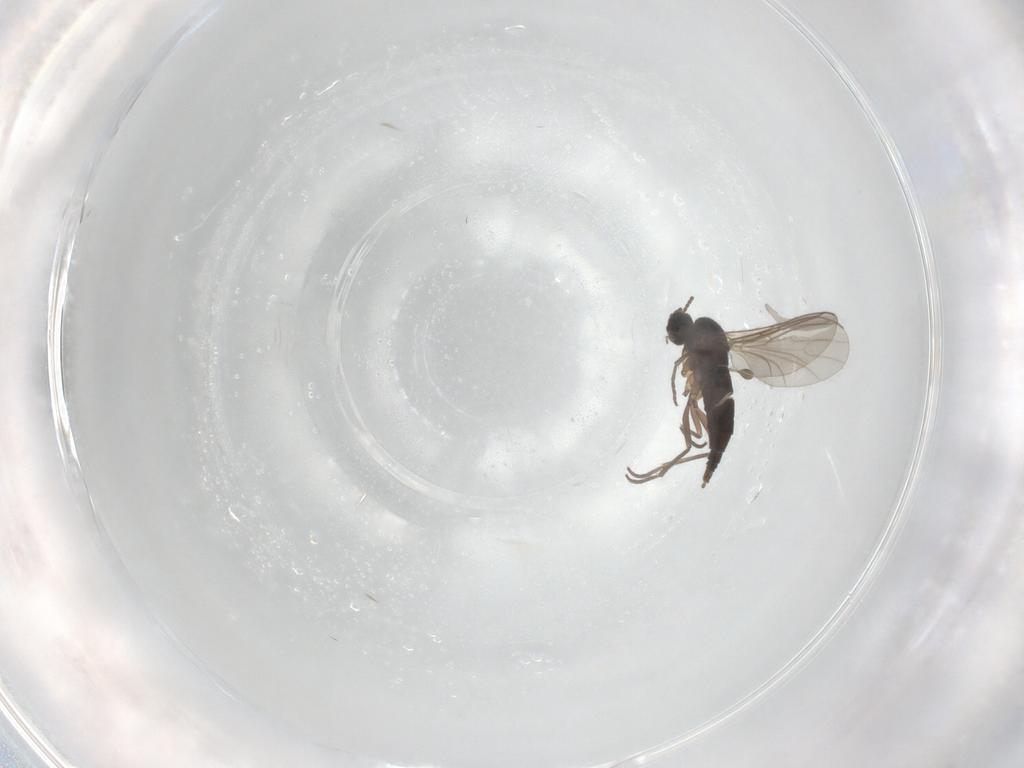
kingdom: Animalia
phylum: Arthropoda
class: Insecta
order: Diptera
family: Sciaridae
